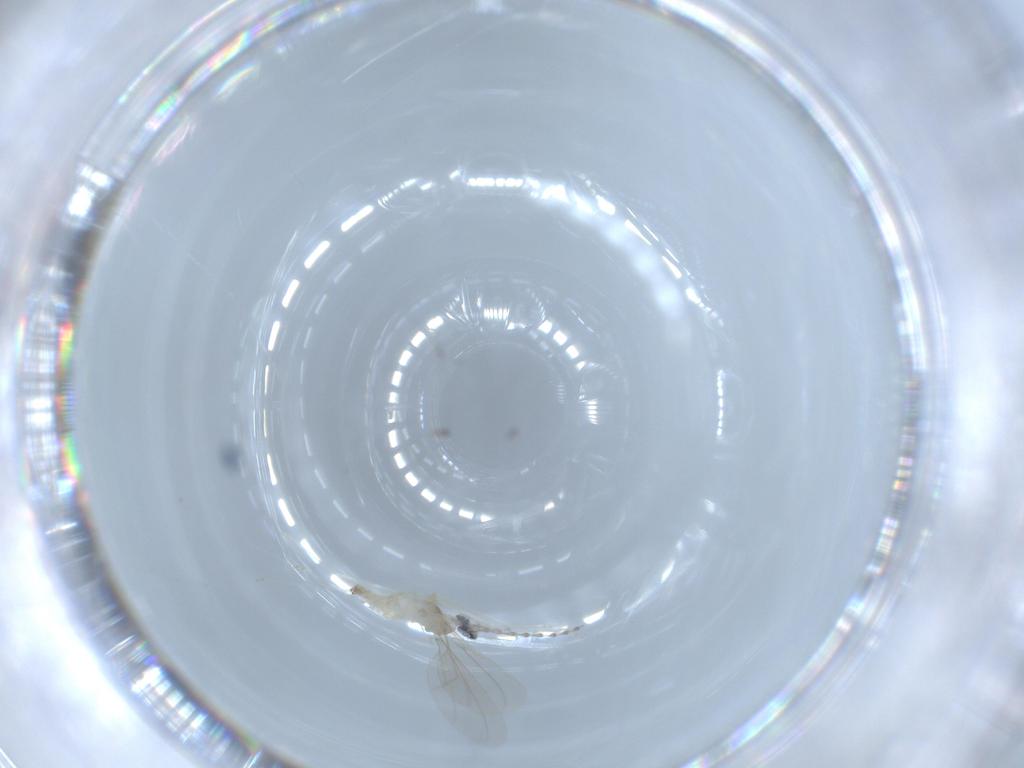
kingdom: Animalia
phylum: Arthropoda
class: Insecta
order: Diptera
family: Cecidomyiidae
